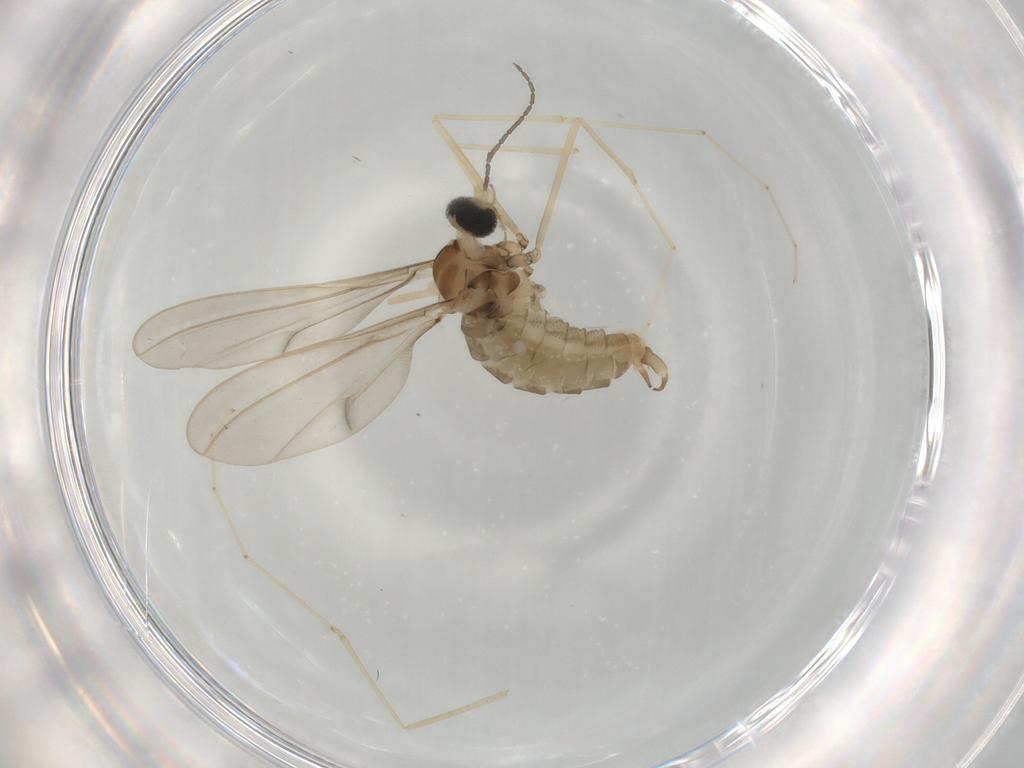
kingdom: Animalia
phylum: Arthropoda
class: Insecta
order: Diptera
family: Cecidomyiidae
